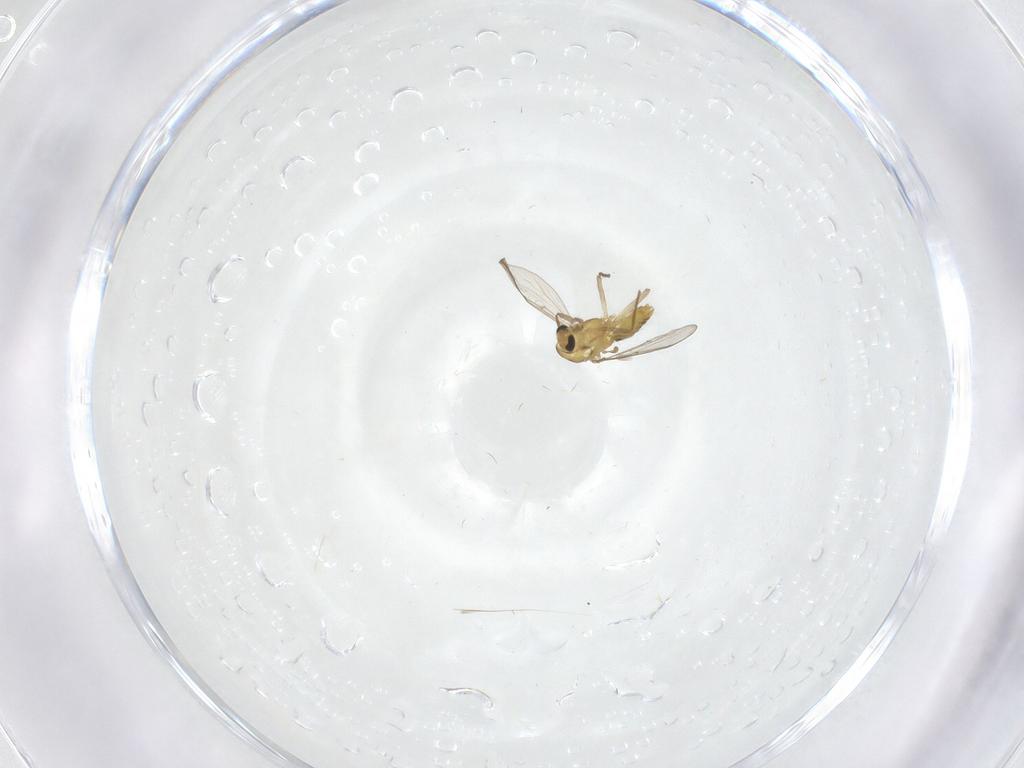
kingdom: Animalia
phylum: Arthropoda
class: Insecta
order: Diptera
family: Chironomidae
